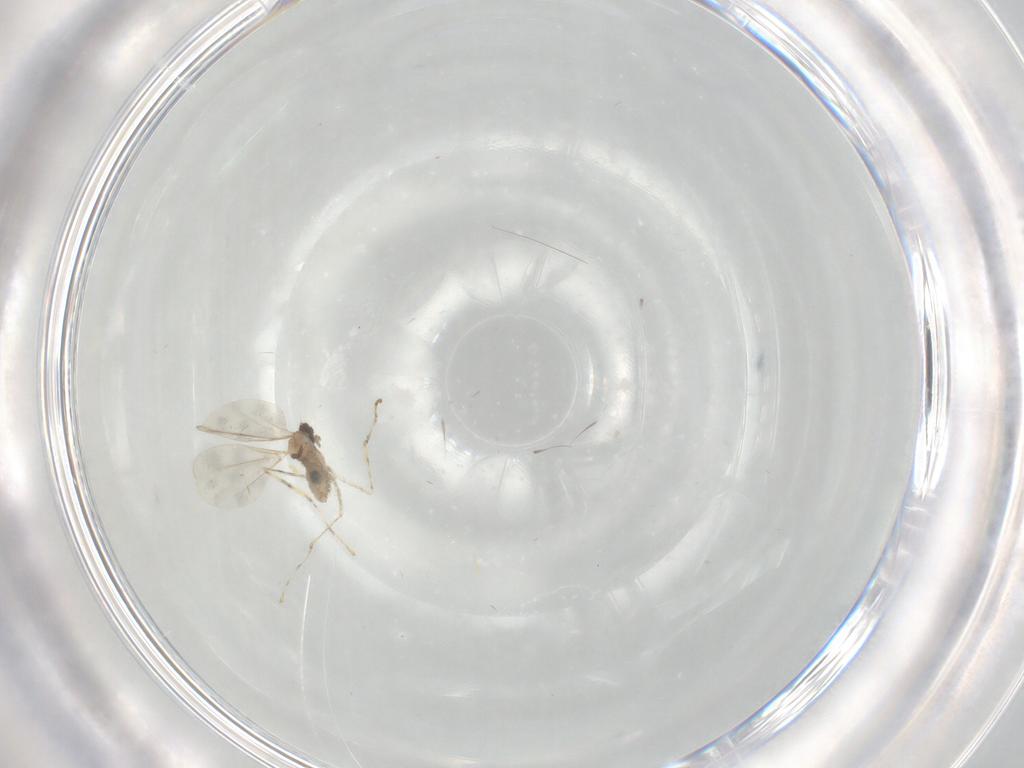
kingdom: Animalia
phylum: Arthropoda
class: Insecta
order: Diptera
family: Cecidomyiidae
